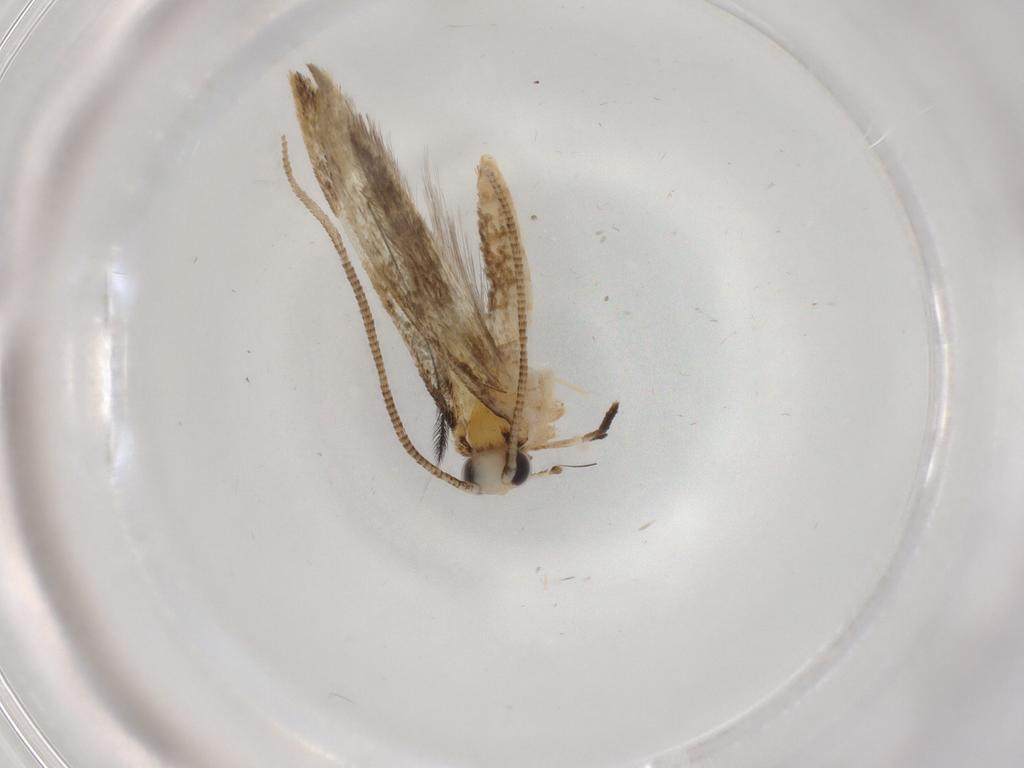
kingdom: Animalia
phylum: Arthropoda
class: Insecta
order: Lepidoptera
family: Tineidae
